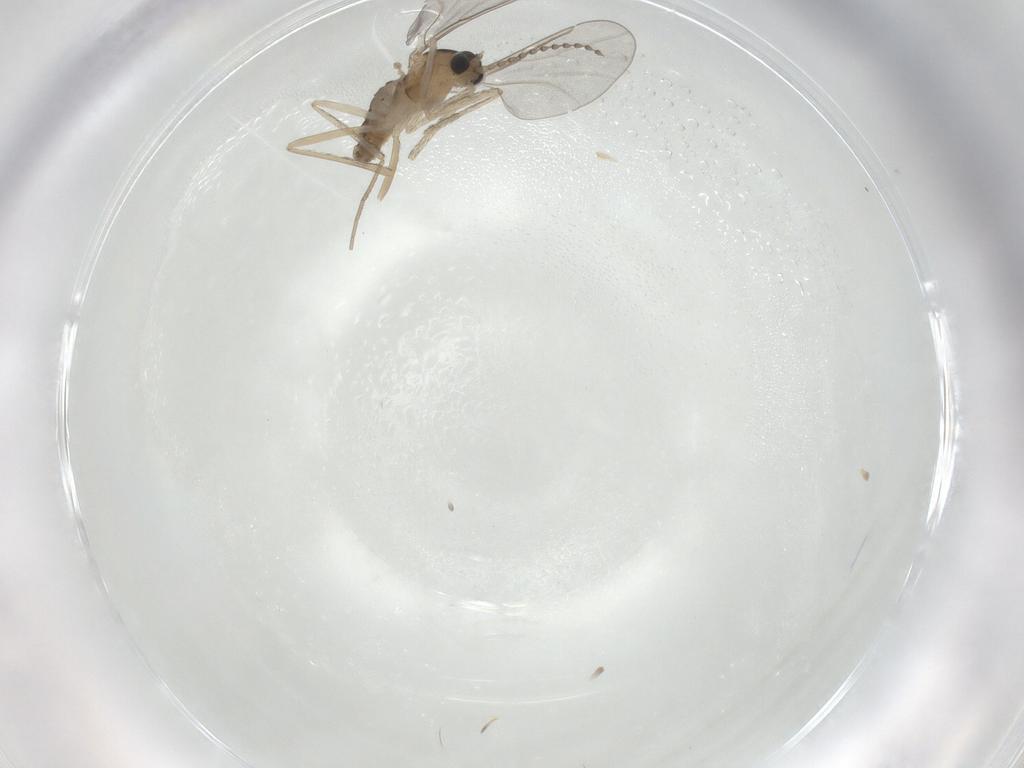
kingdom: Animalia
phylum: Arthropoda
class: Insecta
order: Diptera
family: Cecidomyiidae
